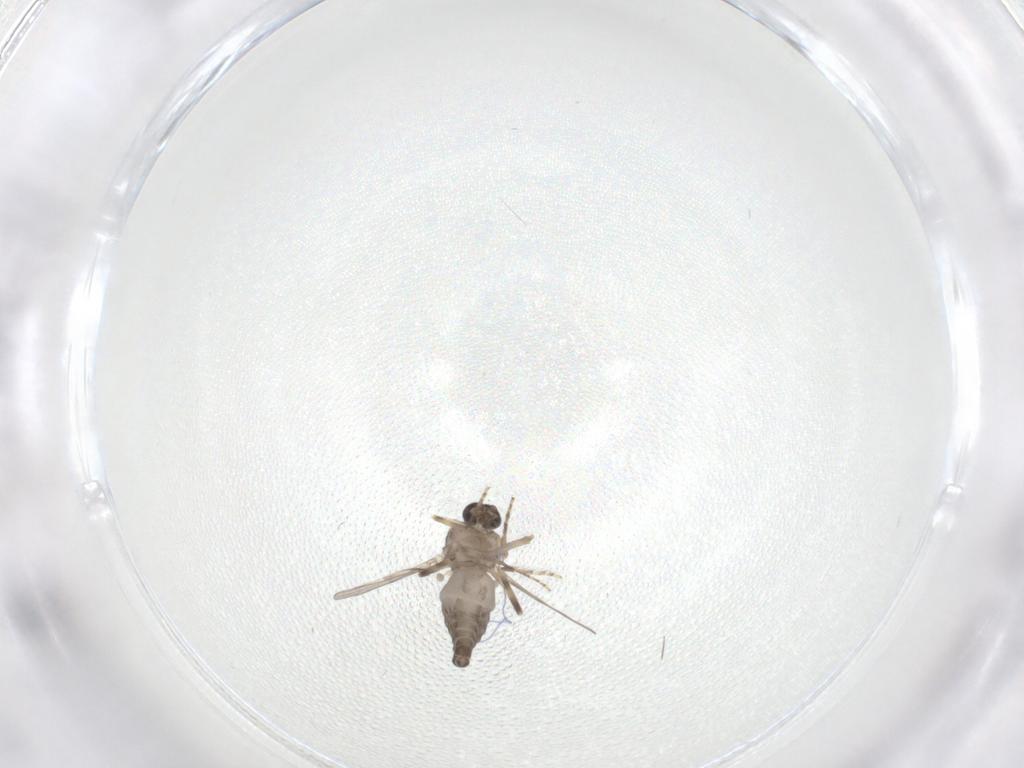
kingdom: Animalia
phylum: Arthropoda
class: Insecta
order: Diptera
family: Ceratopogonidae
